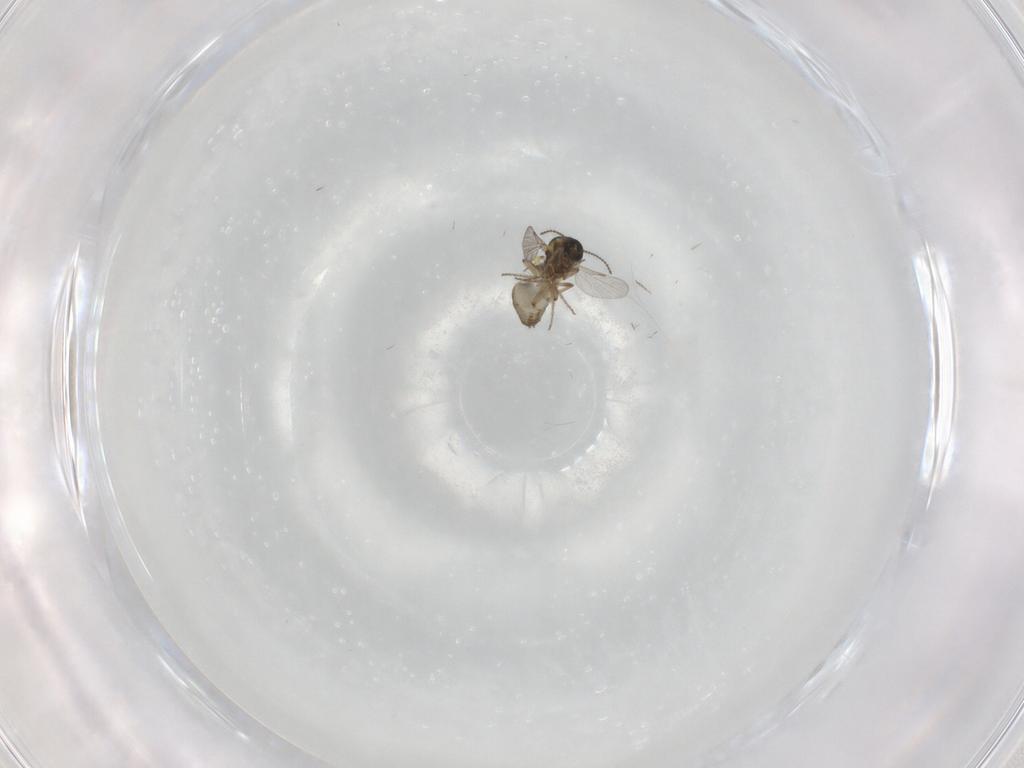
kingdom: Animalia
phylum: Arthropoda
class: Insecta
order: Diptera
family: Ceratopogonidae
